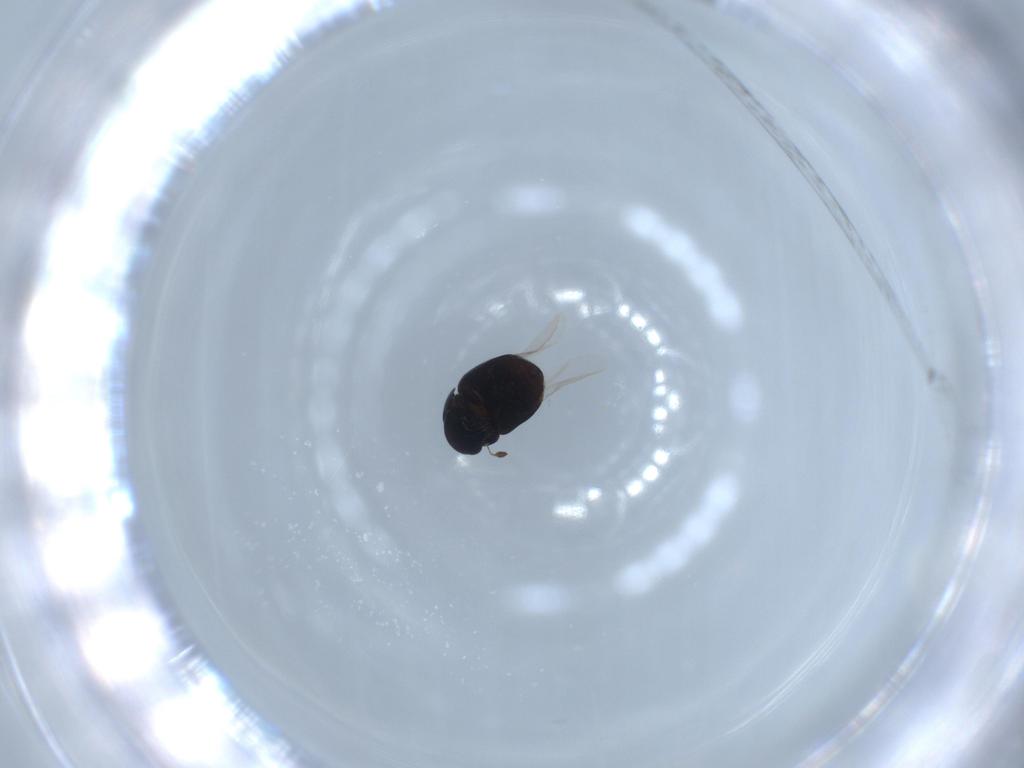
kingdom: Animalia
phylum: Arthropoda
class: Insecta
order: Coleoptera
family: Cybocephalidae
